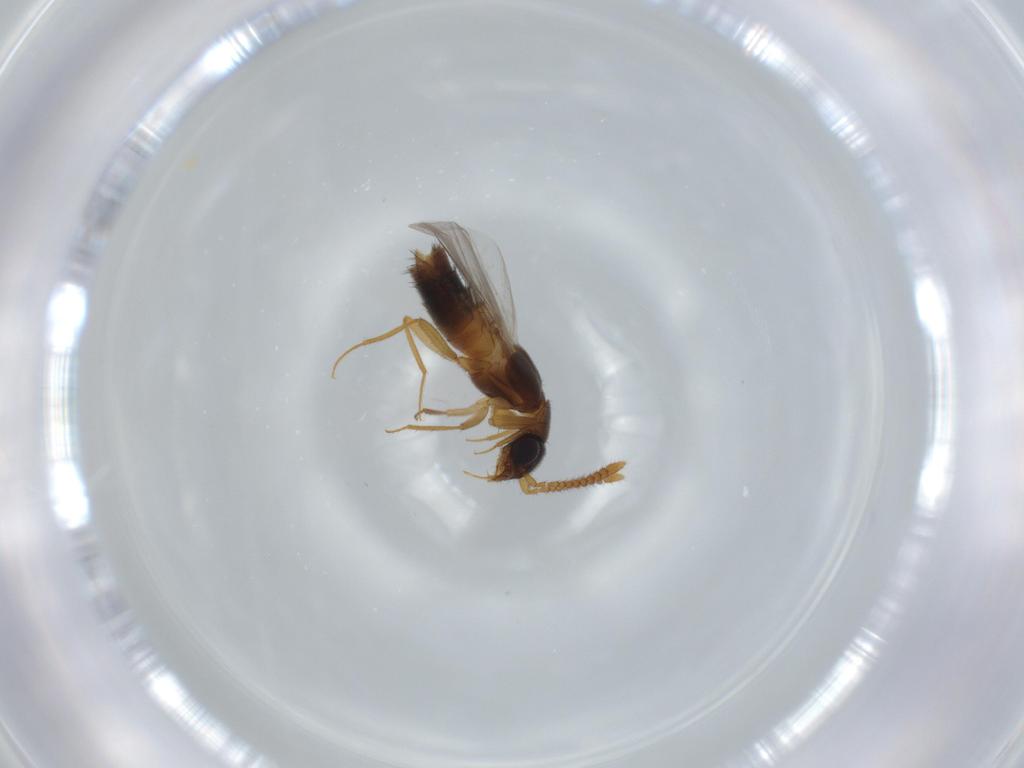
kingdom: Animalia
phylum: Arthropoda
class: Insecta
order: Coleoptera
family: Staphylinidae
